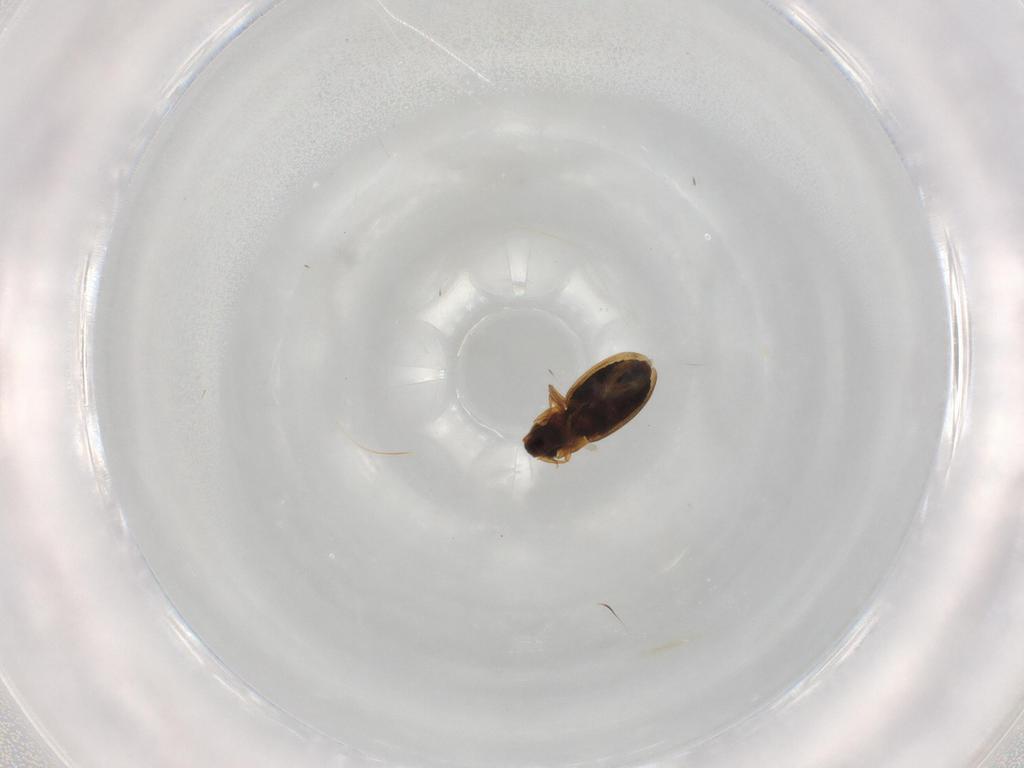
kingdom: Animalia
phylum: Arthropoda
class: Insecta
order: Coleoptera
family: Hydraenidae
